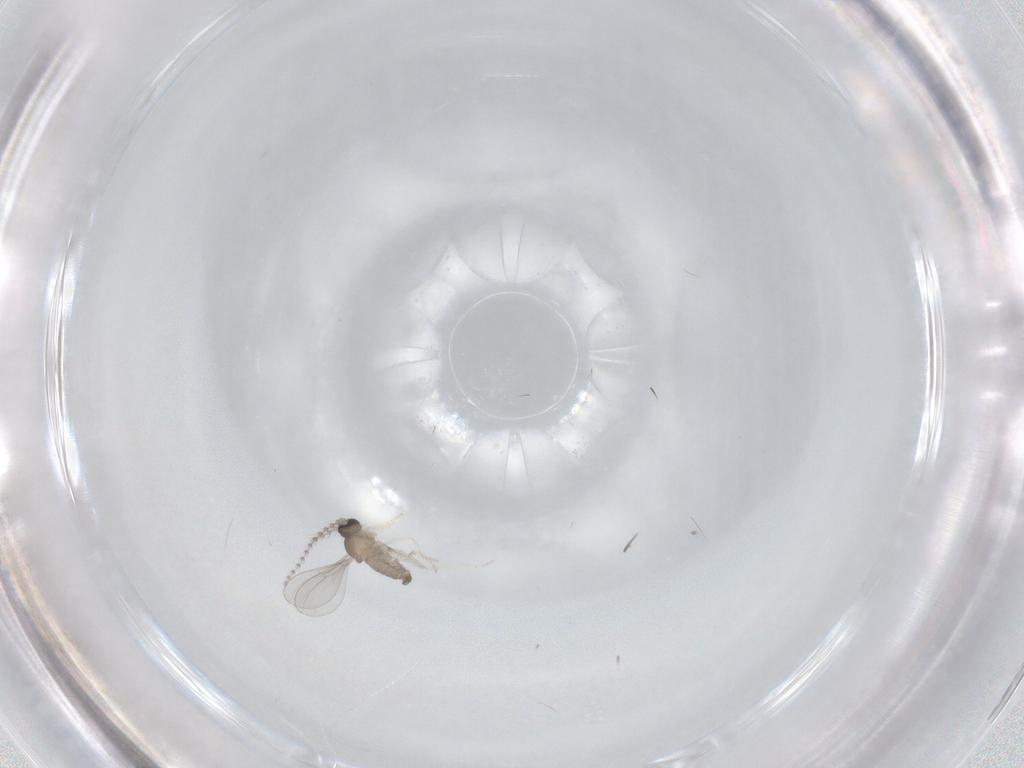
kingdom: Animalia
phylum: Arthropoda
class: Insecta
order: Diptera
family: Cecidomyiidae
